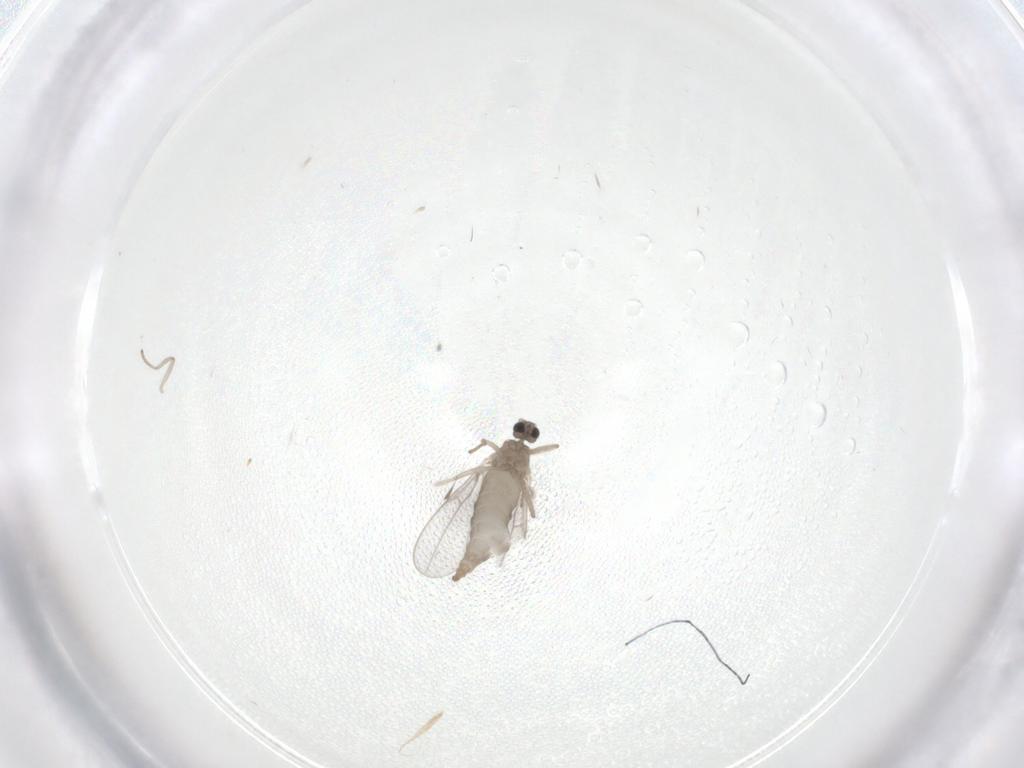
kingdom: Animalia
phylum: Arthropoda
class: Insecta
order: Diptera
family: Cecidomyiidae
